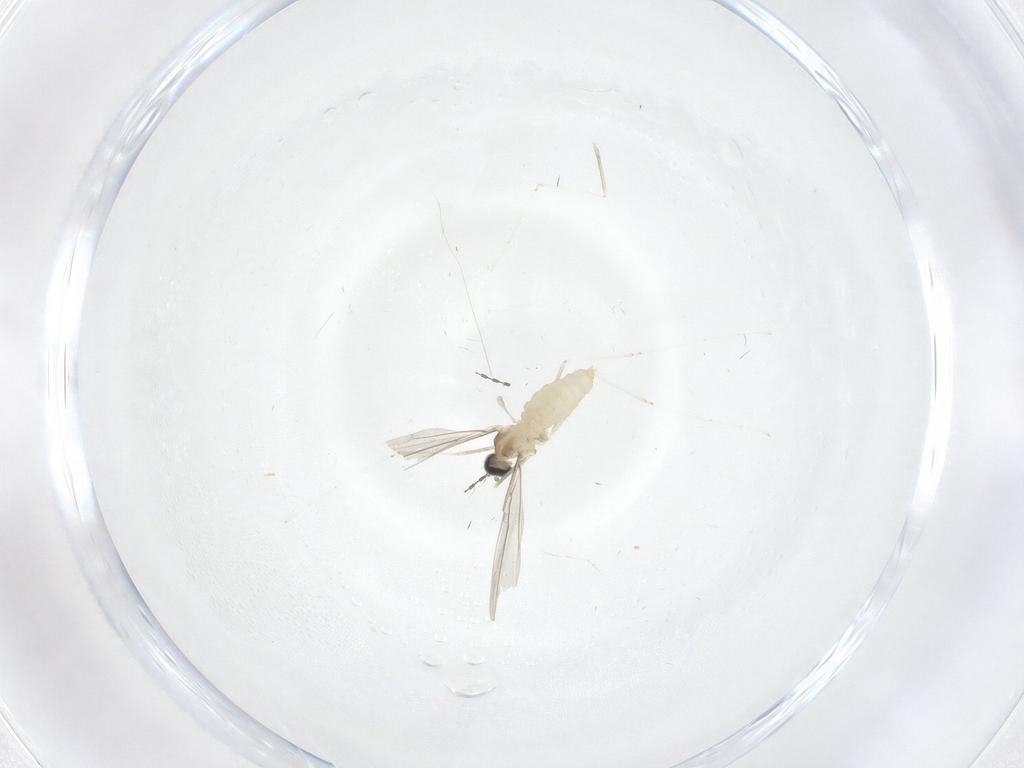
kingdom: Animalia
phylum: Arthropoda
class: Insecta
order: Diptera
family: Cecidomyiidae
